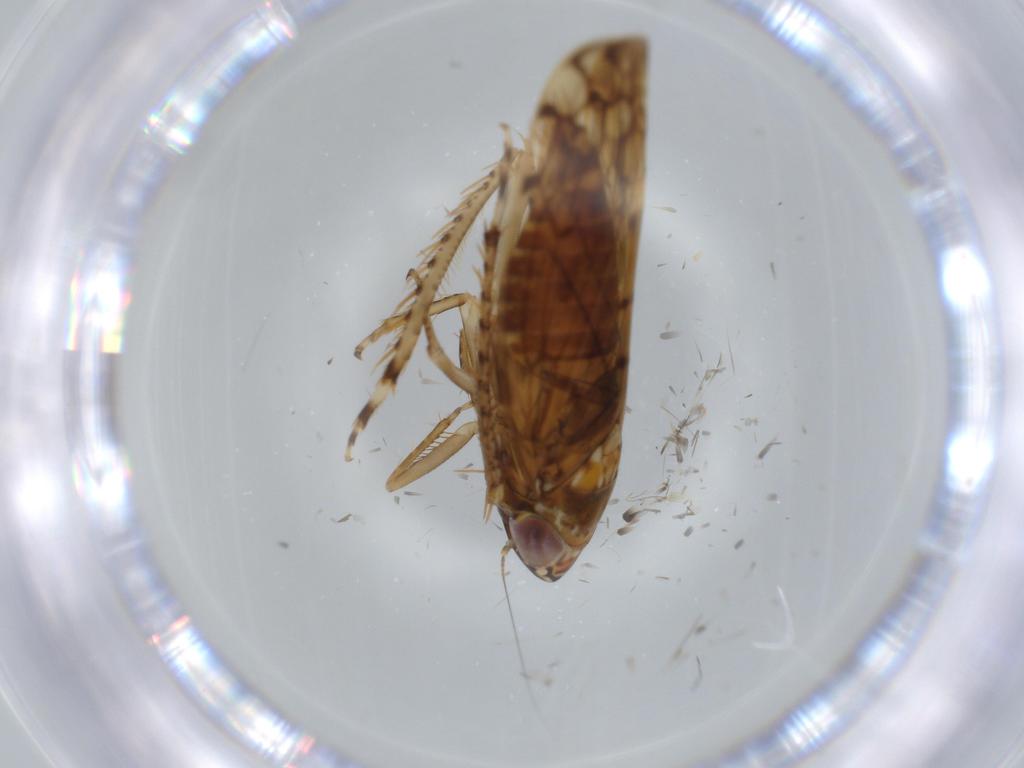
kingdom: Animalia
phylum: Arthropoda
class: Insecta
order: Hemiptera
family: Cicadellidae
